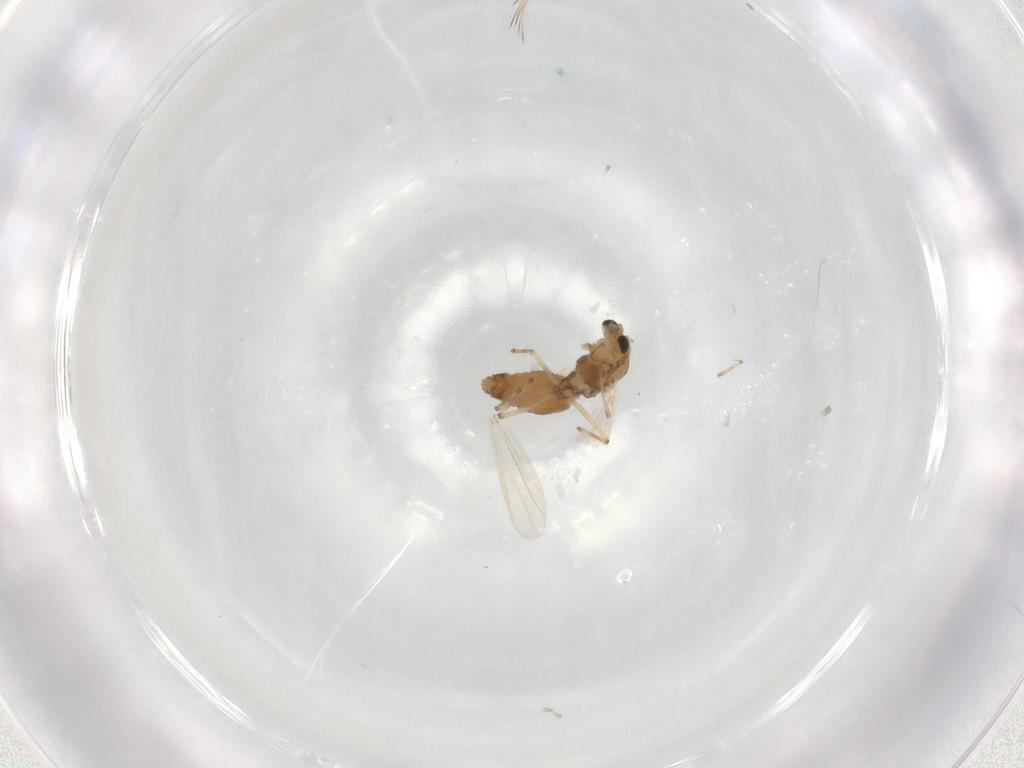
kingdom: Animalia
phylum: Arthropoda
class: Insecta
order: Diptera
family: Chironomidae
